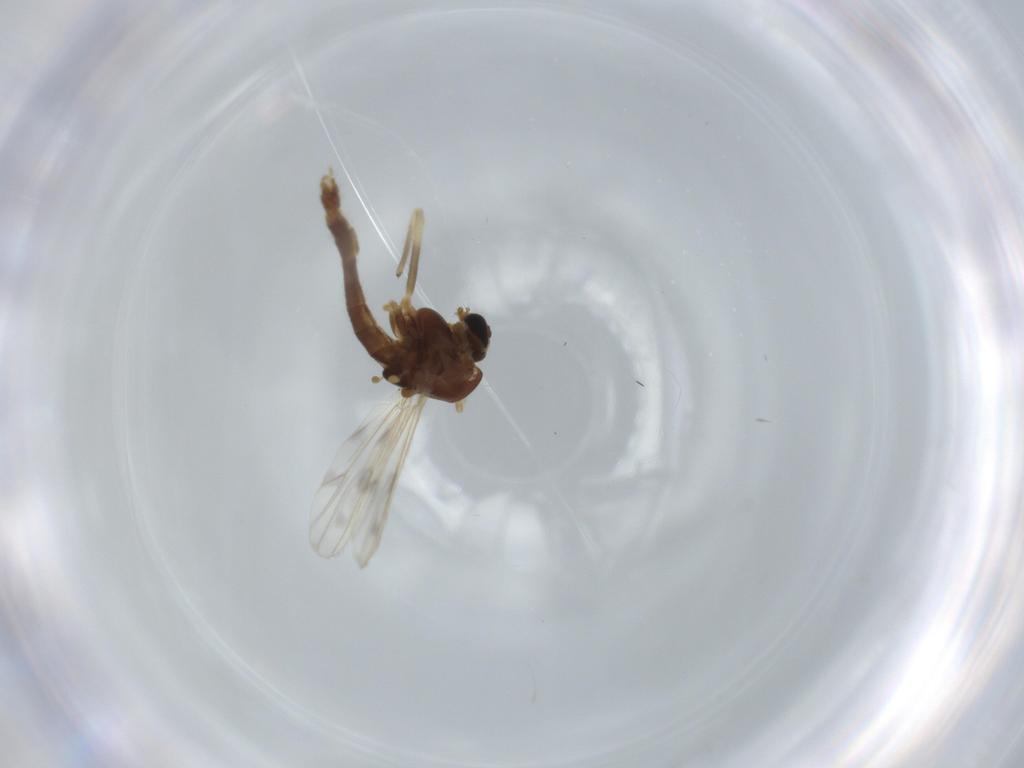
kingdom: Animalia
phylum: Arthropoda
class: Insecta
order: Diptera
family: Sciaridae
